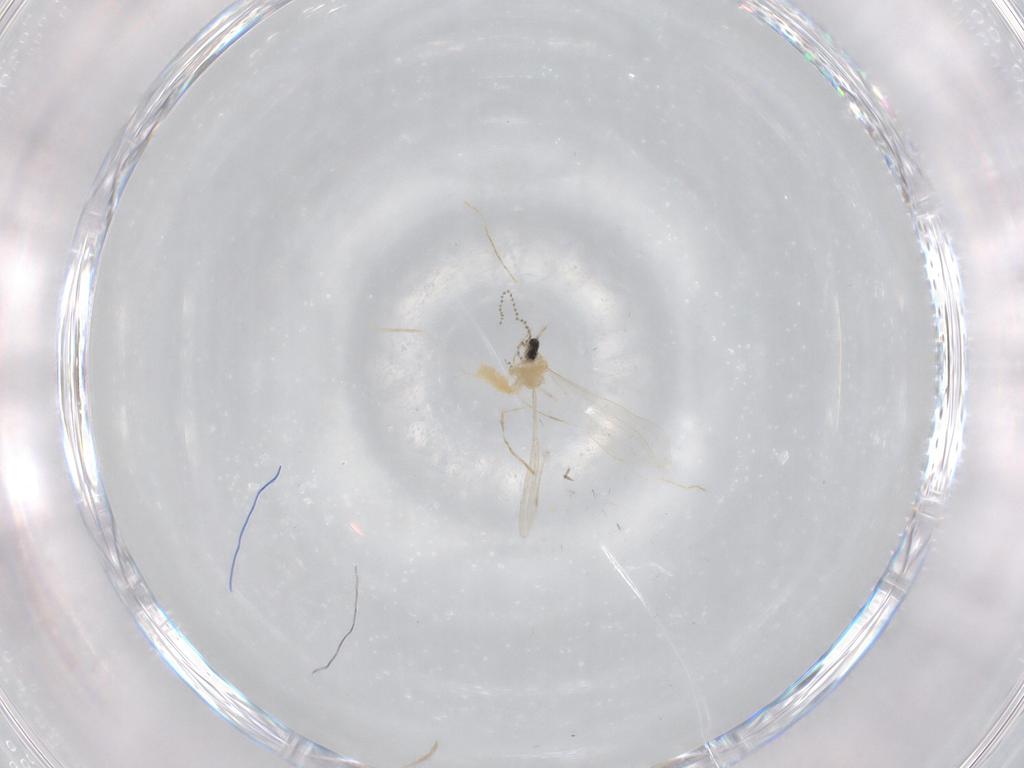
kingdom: Animalia
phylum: Arthropoda
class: Insecta
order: Diptera
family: Cecidomyiidae
